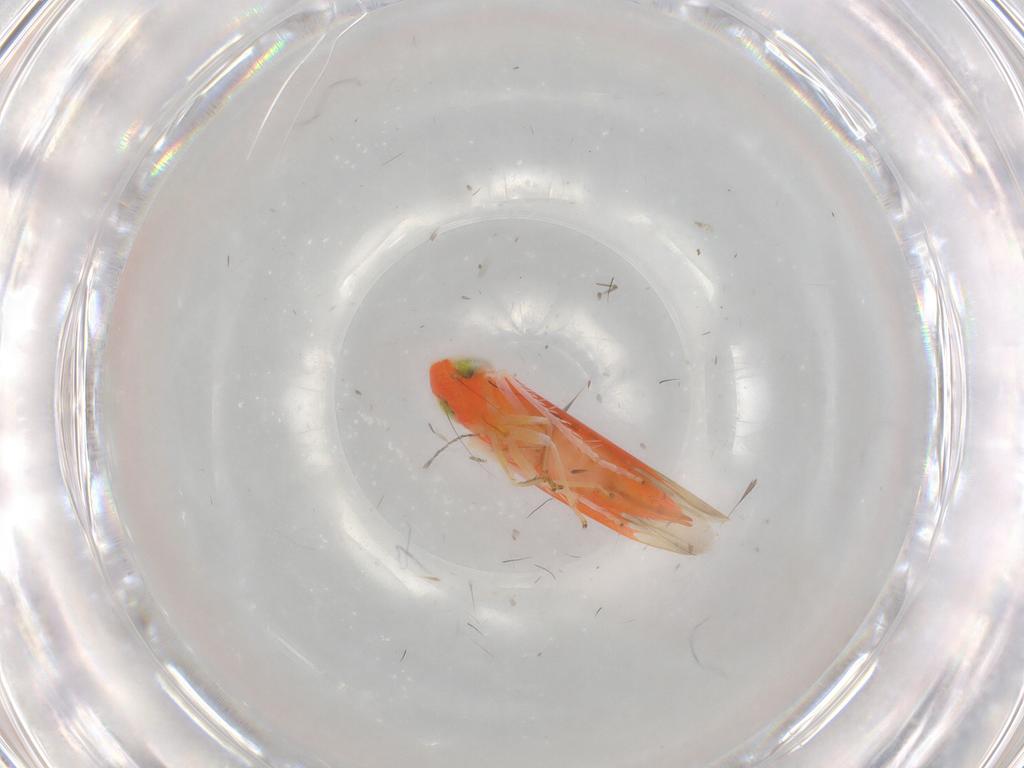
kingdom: Animalia
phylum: Arthropoda
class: Insecta
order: Hemiptera
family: Cicadellidae
